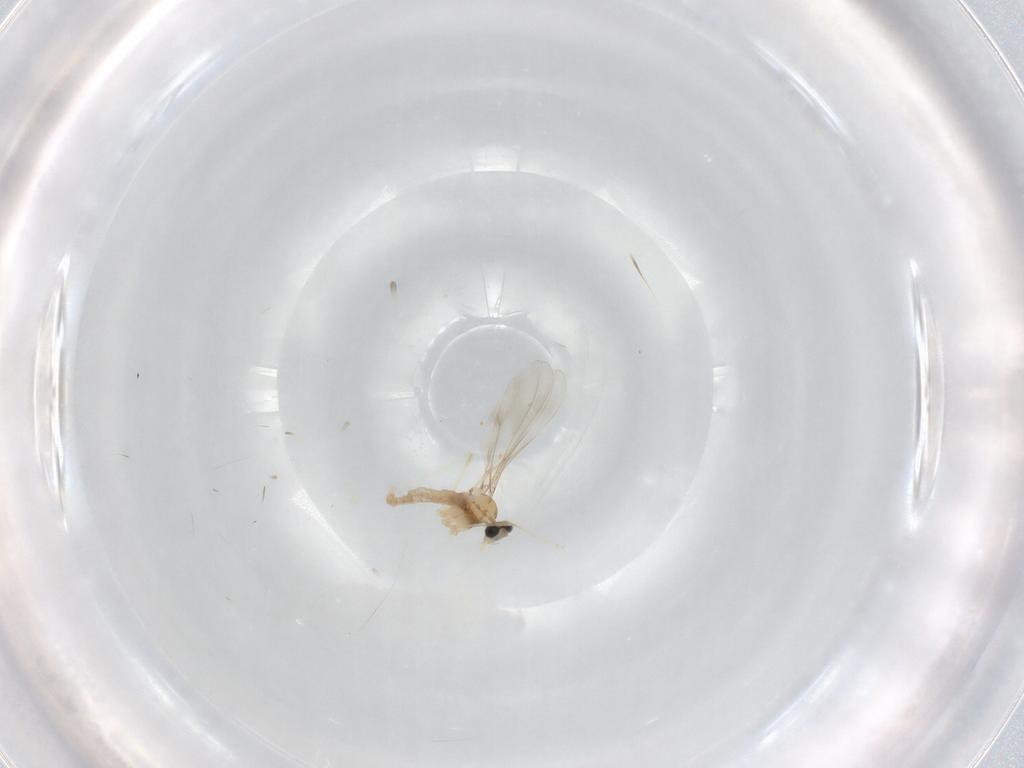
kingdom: Animalia
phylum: Arthropoda
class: Insecta
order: Diptera
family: Cecidomyiidae
